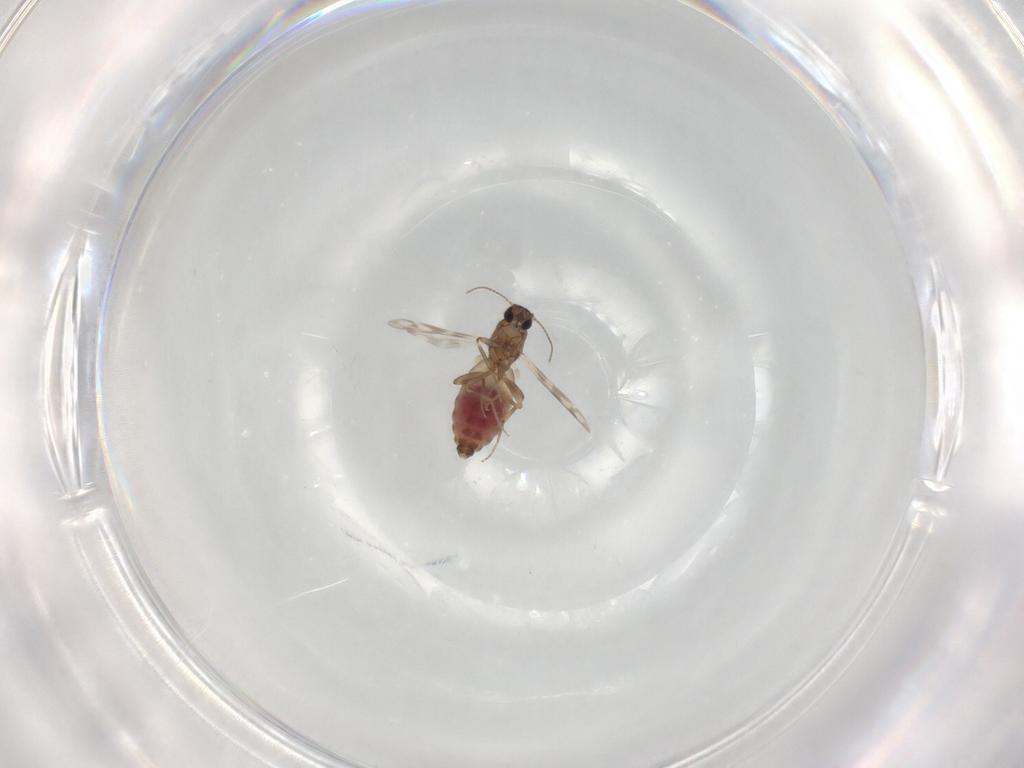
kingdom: Animalia
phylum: Arthropoda
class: Insecta
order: Diptera
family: Ceratopogonidae
